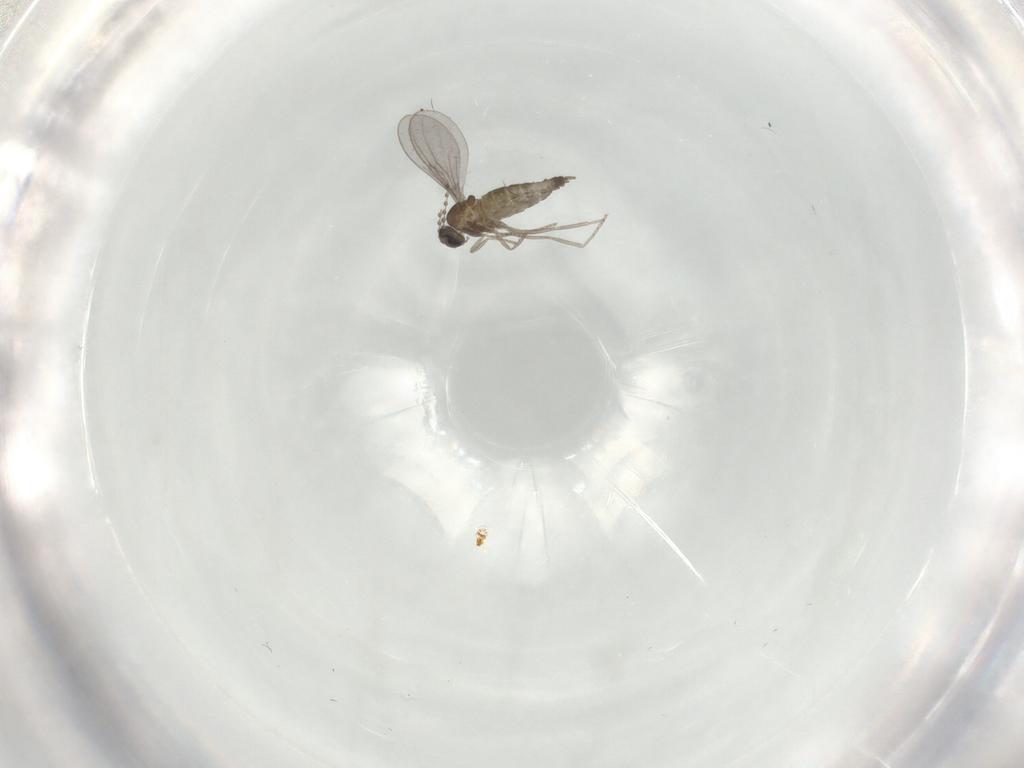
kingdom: Animalia
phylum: Arthropoda
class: Insecta
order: Diptera
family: Cecidomyiidae
